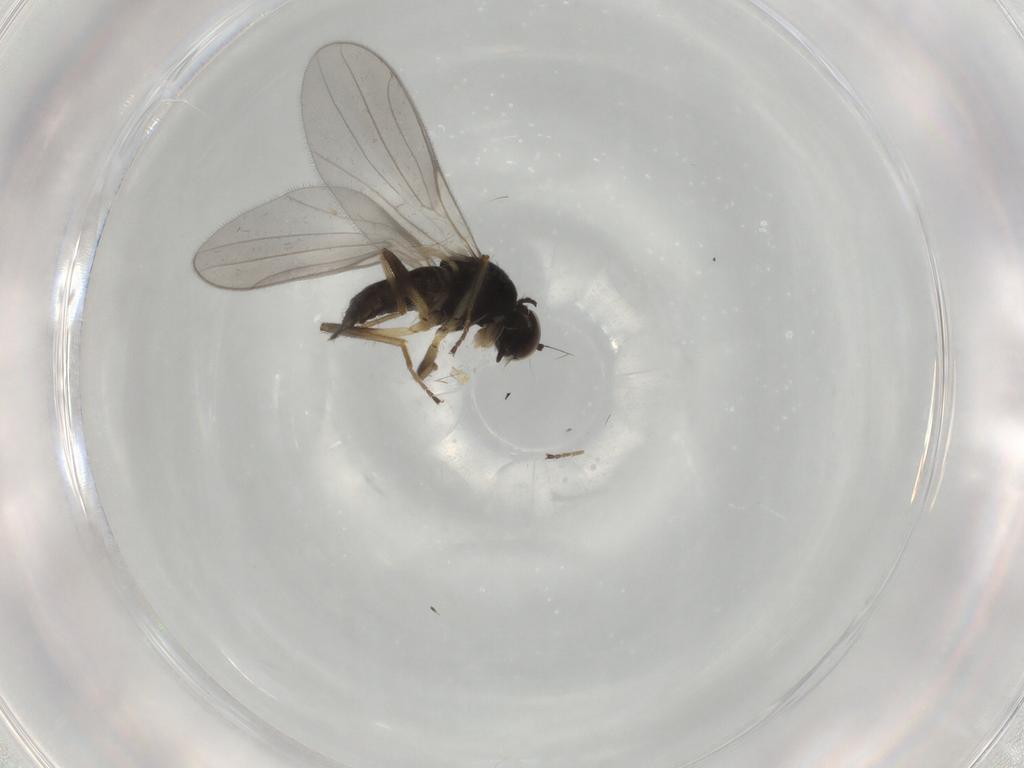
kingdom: Animalia
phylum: Arthropoda
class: Insecta
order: Diptera
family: Hybotidae
